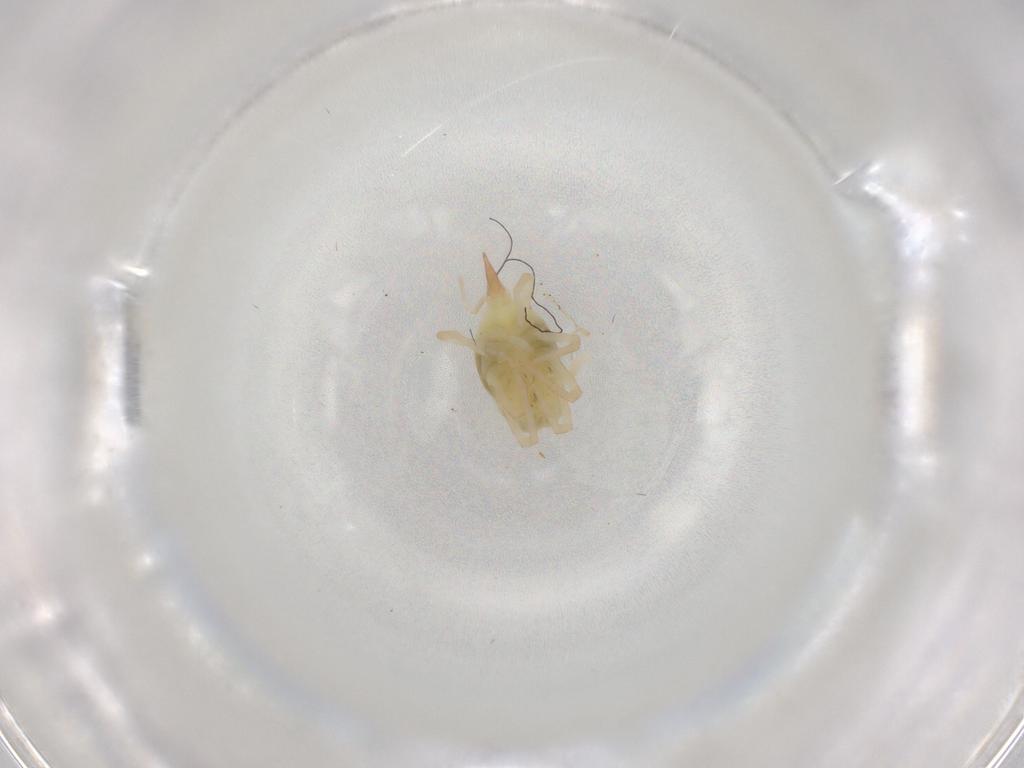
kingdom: Animalia
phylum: Arthropoda
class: Arachnida
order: Trombidiformes
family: Bdellidae
